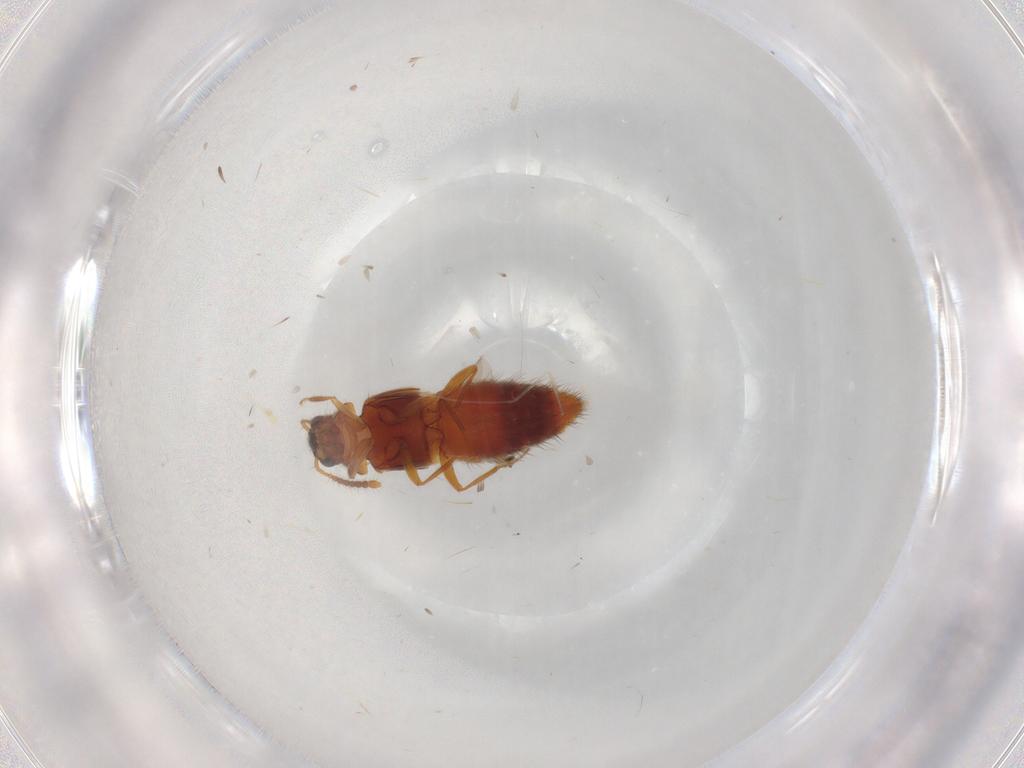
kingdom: Animalia
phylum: Arthropoda
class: Insecta
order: Coleoptera
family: Staphylinidae
